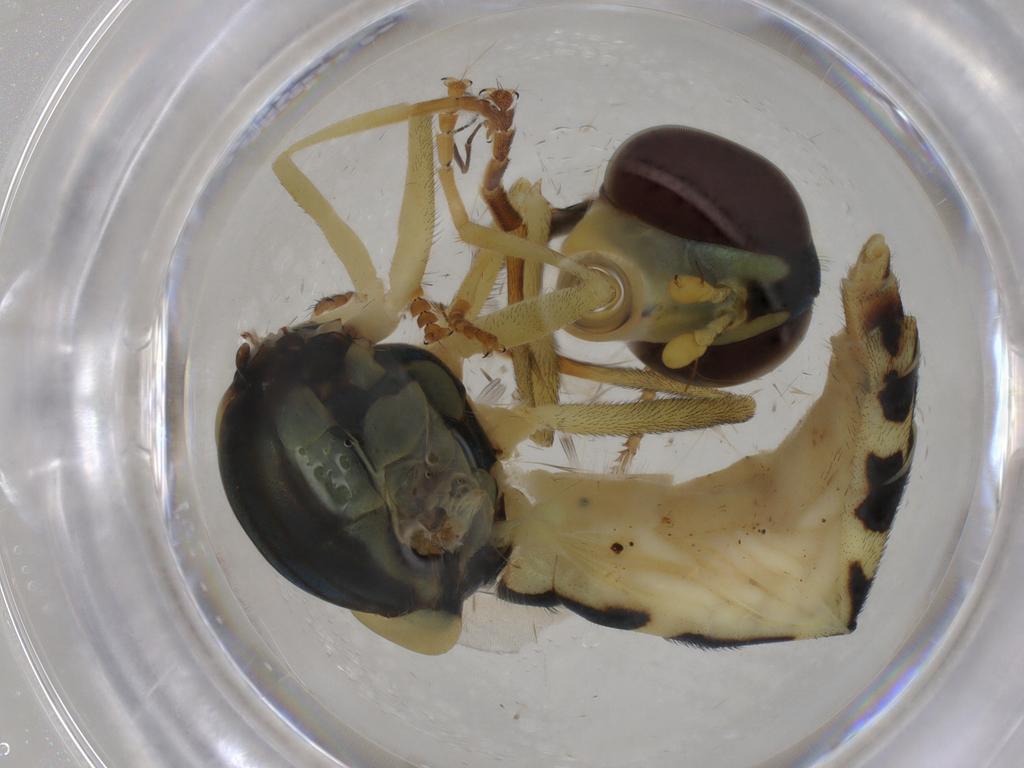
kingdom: Animalia
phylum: Arthropoda
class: Insecta
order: Diptera
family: Syrphidae
